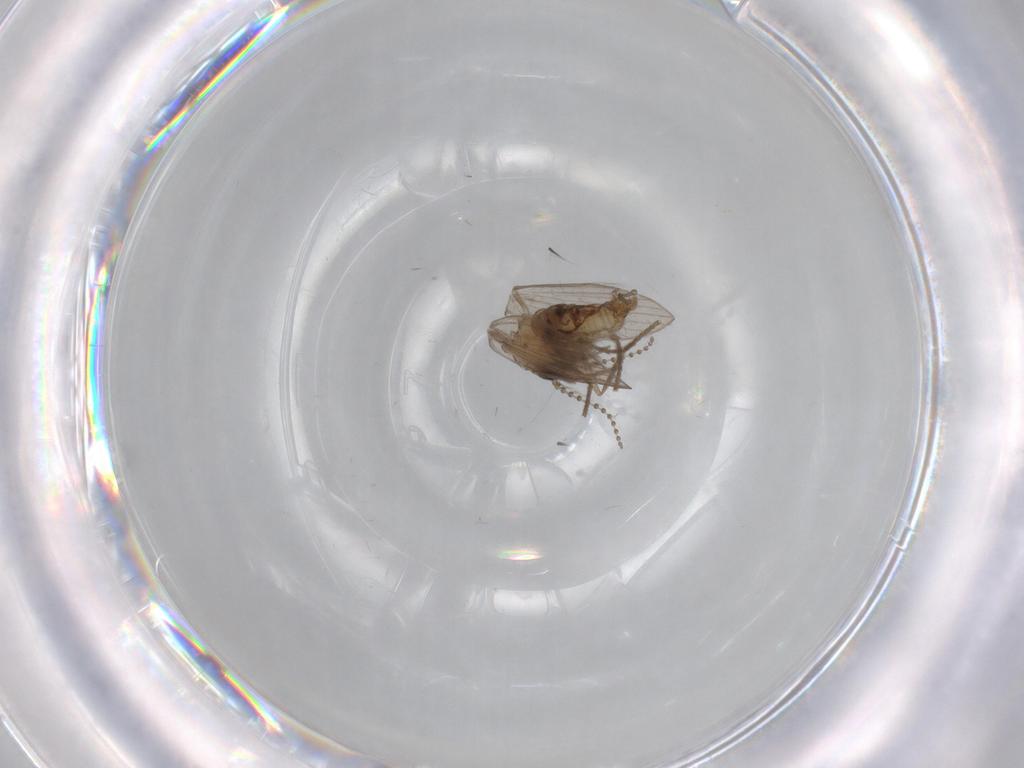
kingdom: Animalia
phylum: Arthropoda
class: Insecta
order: Diptera
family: Psychodidae
